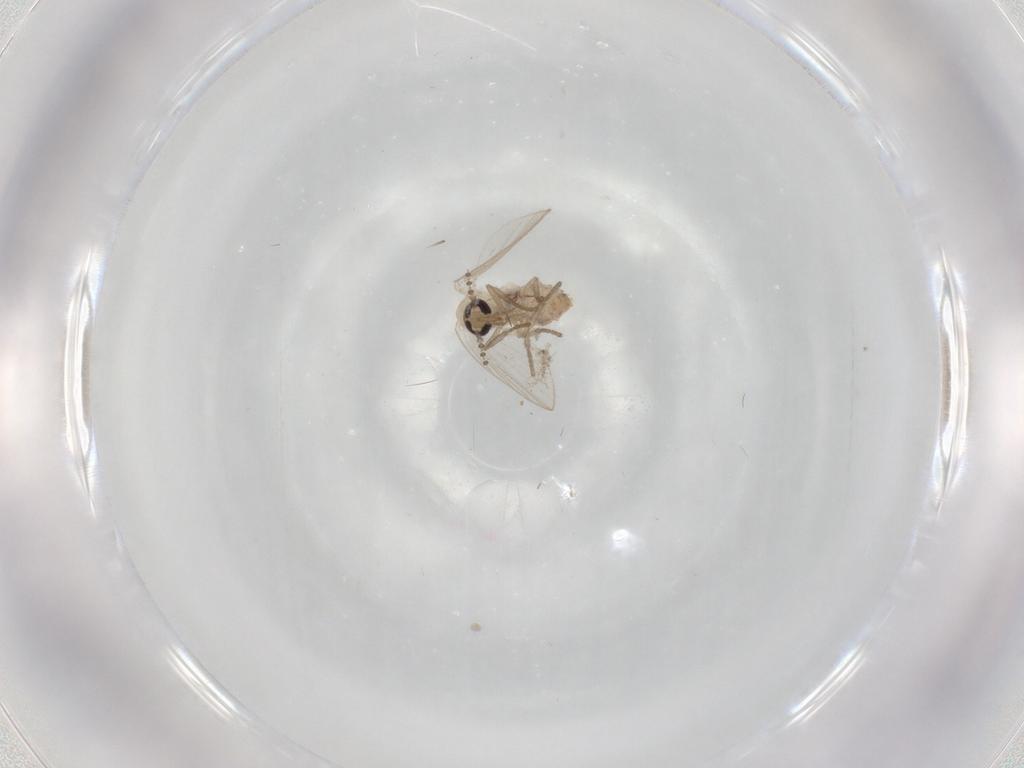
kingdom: Animalia
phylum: Arthropoda
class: Insecta
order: Diptera
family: Psychodidae
